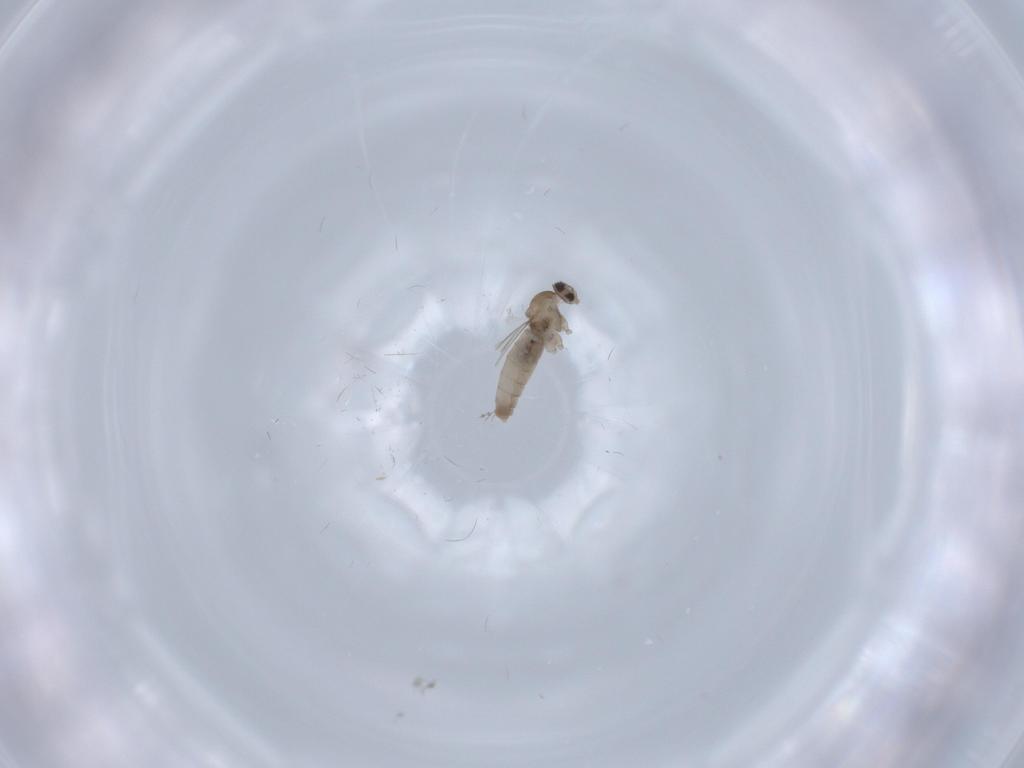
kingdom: Animalia
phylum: Arthropoda
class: Insecta
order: Diptera
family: Cecidomyiidae
